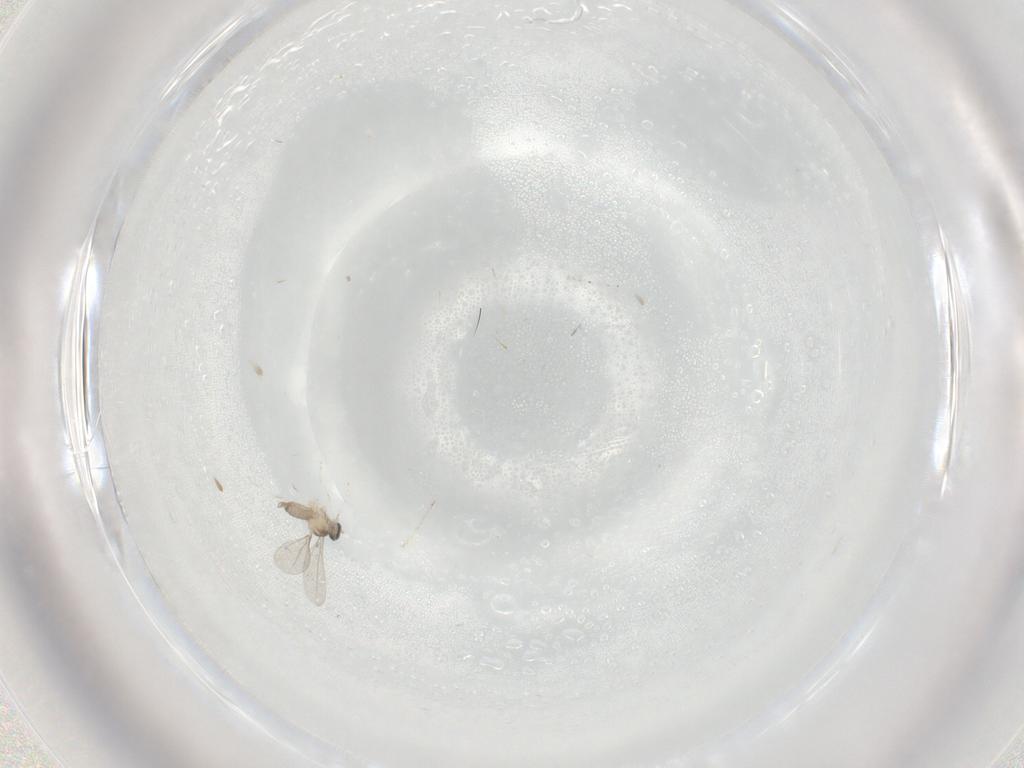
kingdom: Animalia
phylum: Arthropoda
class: Insecta
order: Diptera
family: Cecidomyiidae
